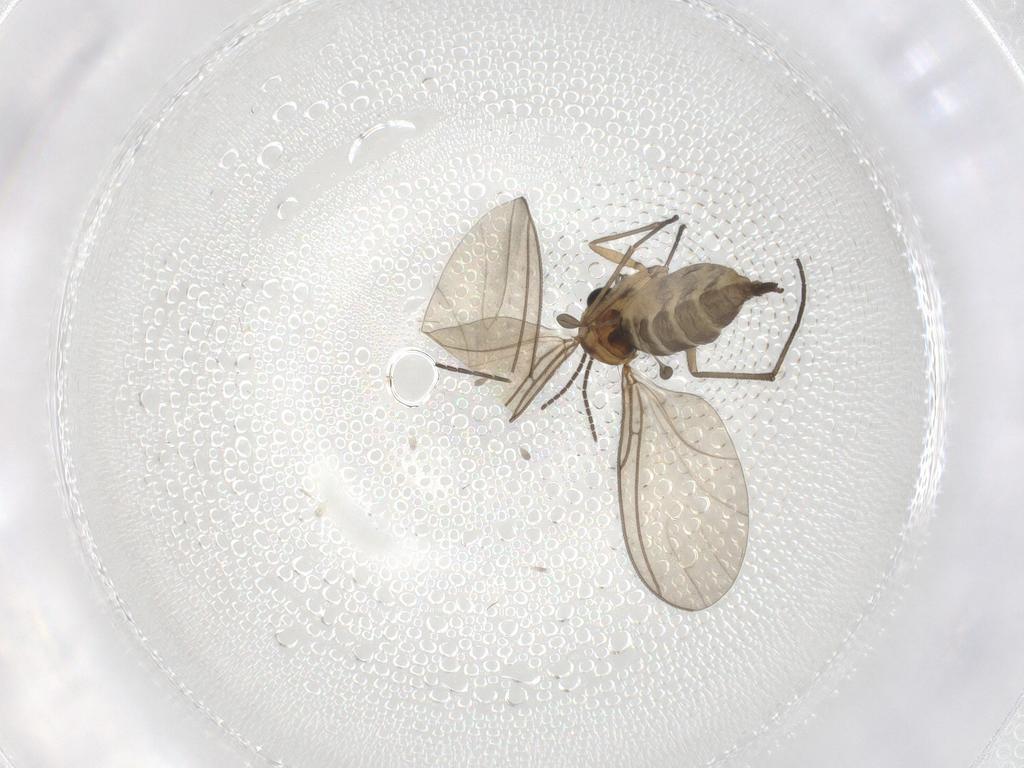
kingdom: Animalia
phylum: Arthropoda
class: Insecta
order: Diptera
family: Sciaridae
